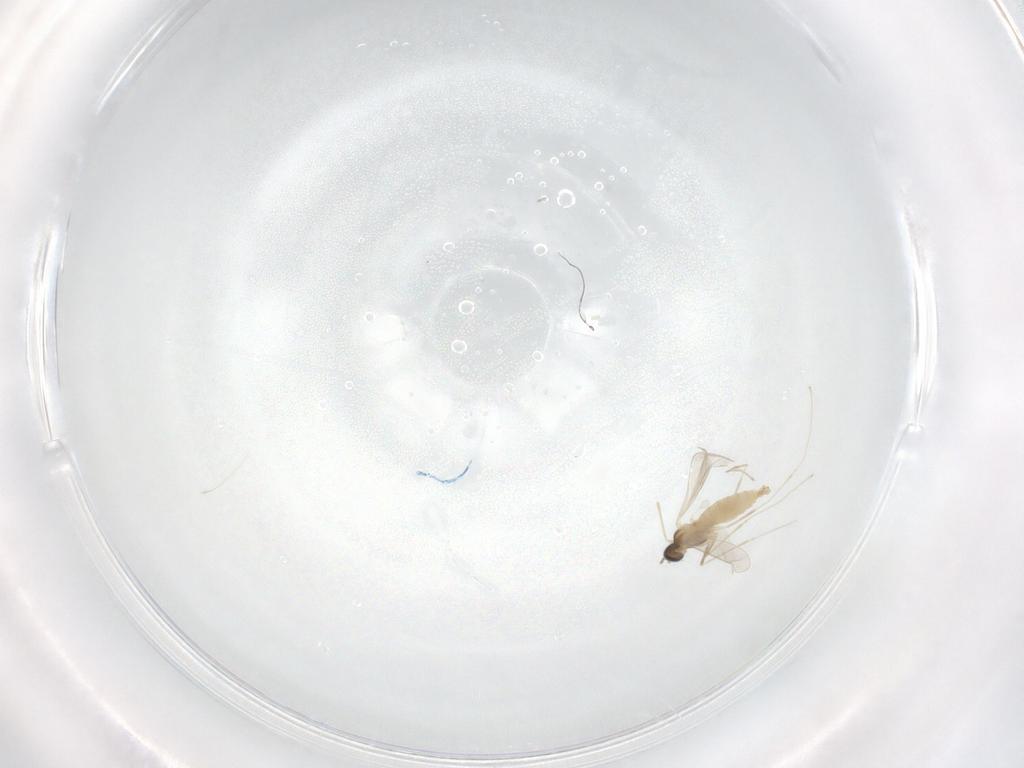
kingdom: Animalia
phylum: Arthropoda
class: Insecta
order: Diptera
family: Cecidomyiidae
